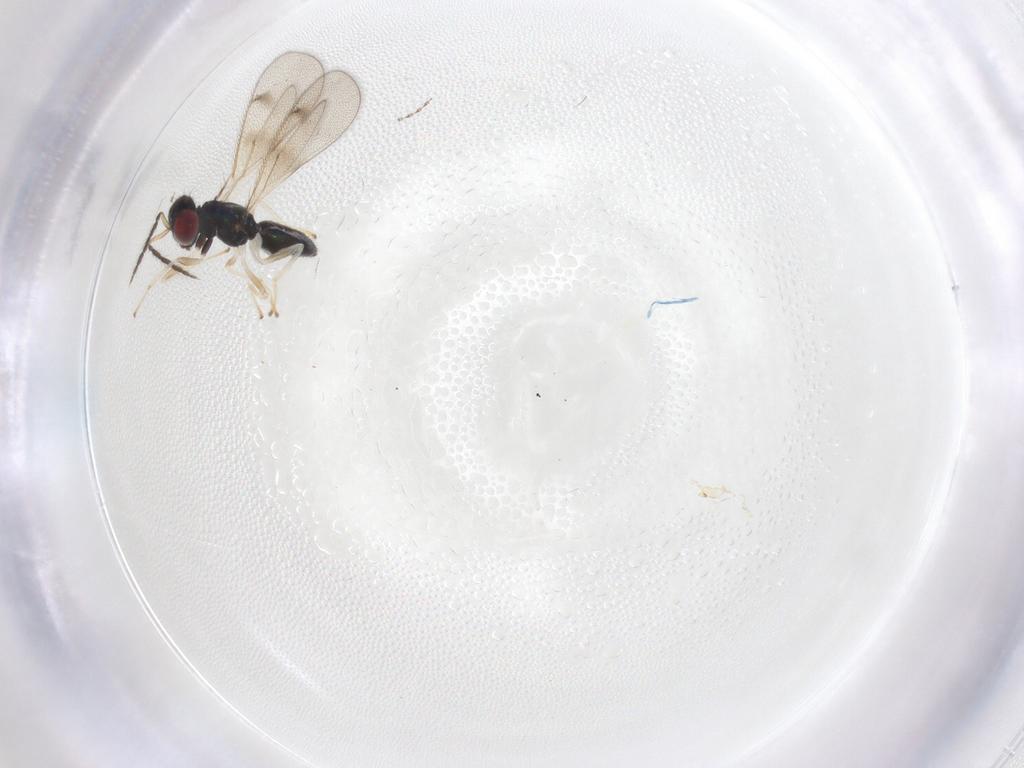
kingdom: Animalia
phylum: Arthropoda
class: Insecta
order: Hymenoptera
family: Eulophidae
